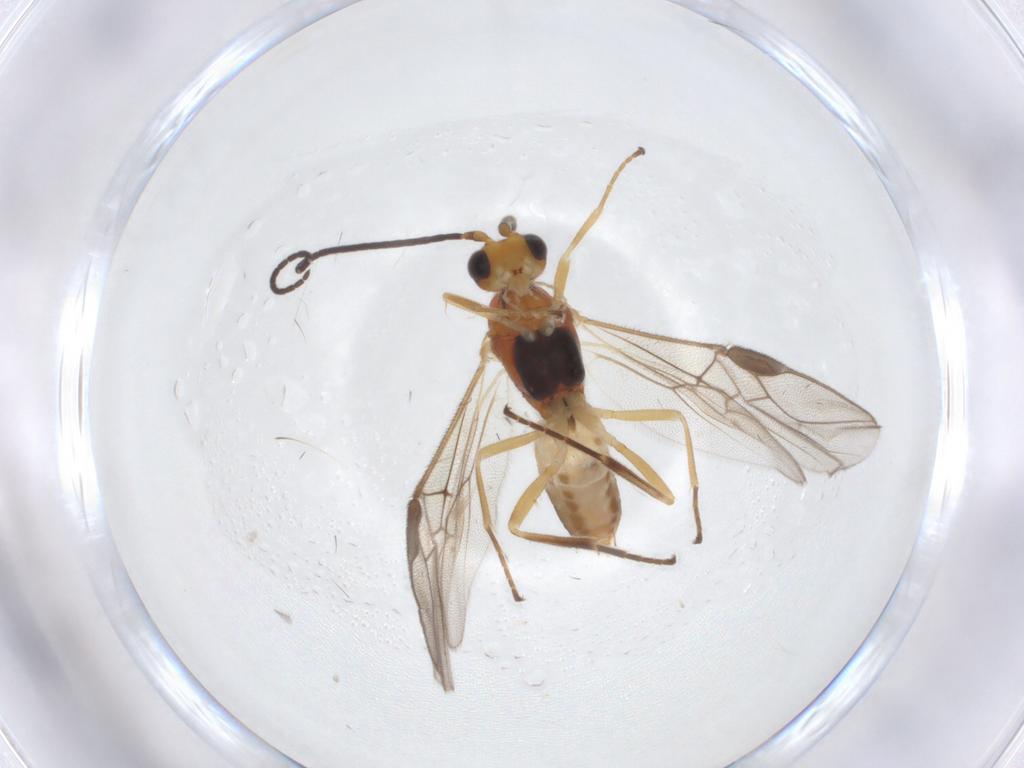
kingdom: Animalia
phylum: Arthropoda
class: Insecta
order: Hymenoptera
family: Braconidae
